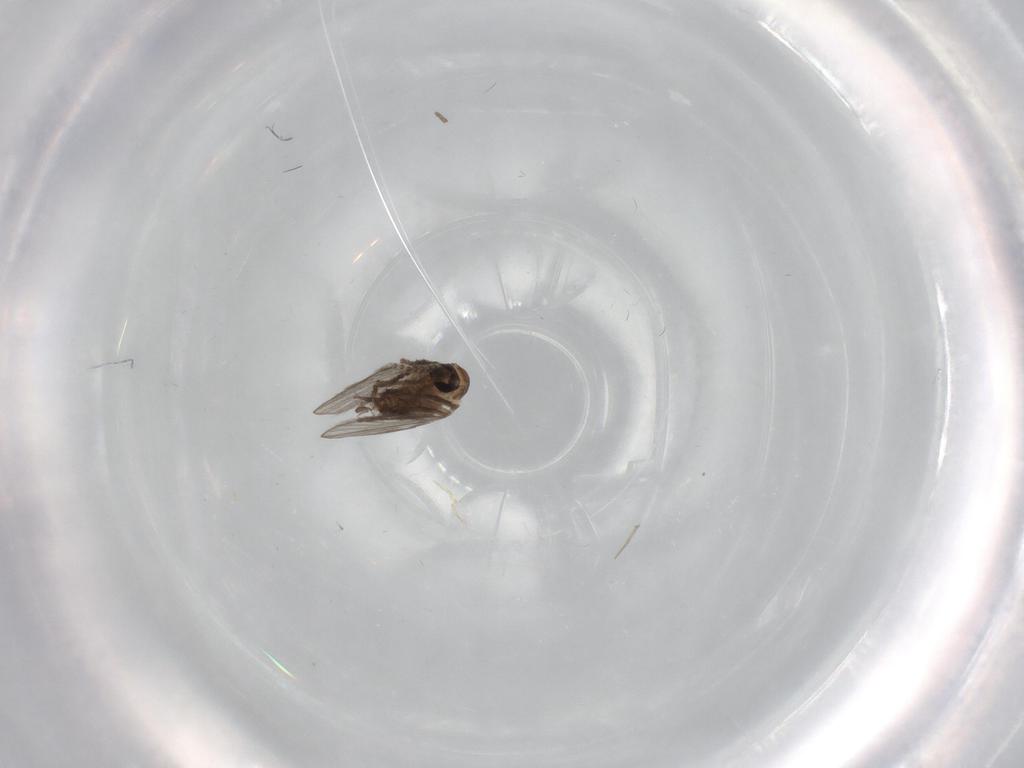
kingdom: Animalia
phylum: Arthropoda
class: Insecta
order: Diptera
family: Psychodidae
